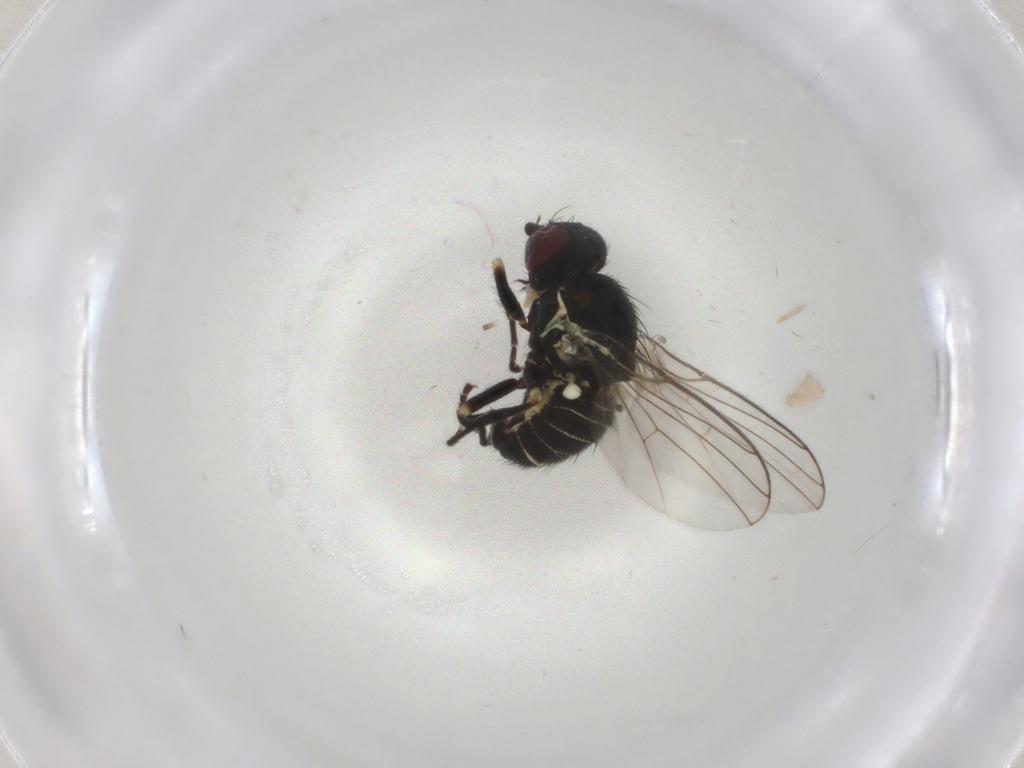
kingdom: Animalia
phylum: Arthropoda
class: Insecta
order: Diptera
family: Agromyzidae
